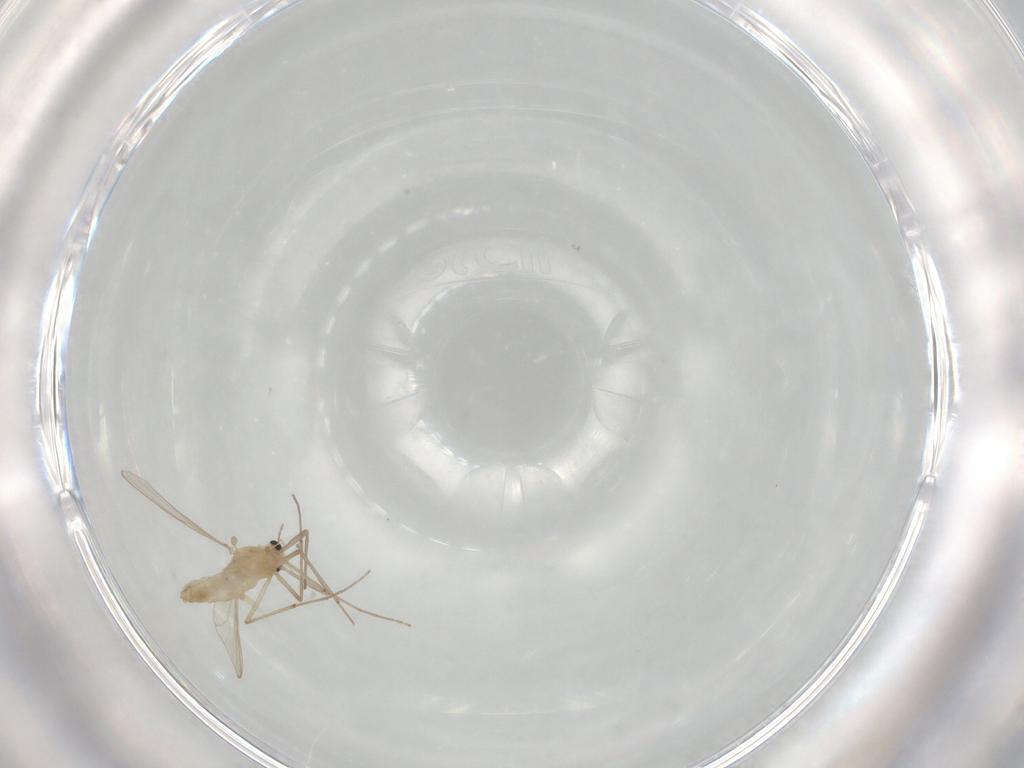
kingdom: Animalia
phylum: Arthropoda
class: Insecta
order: Diptera
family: Chironomidae
